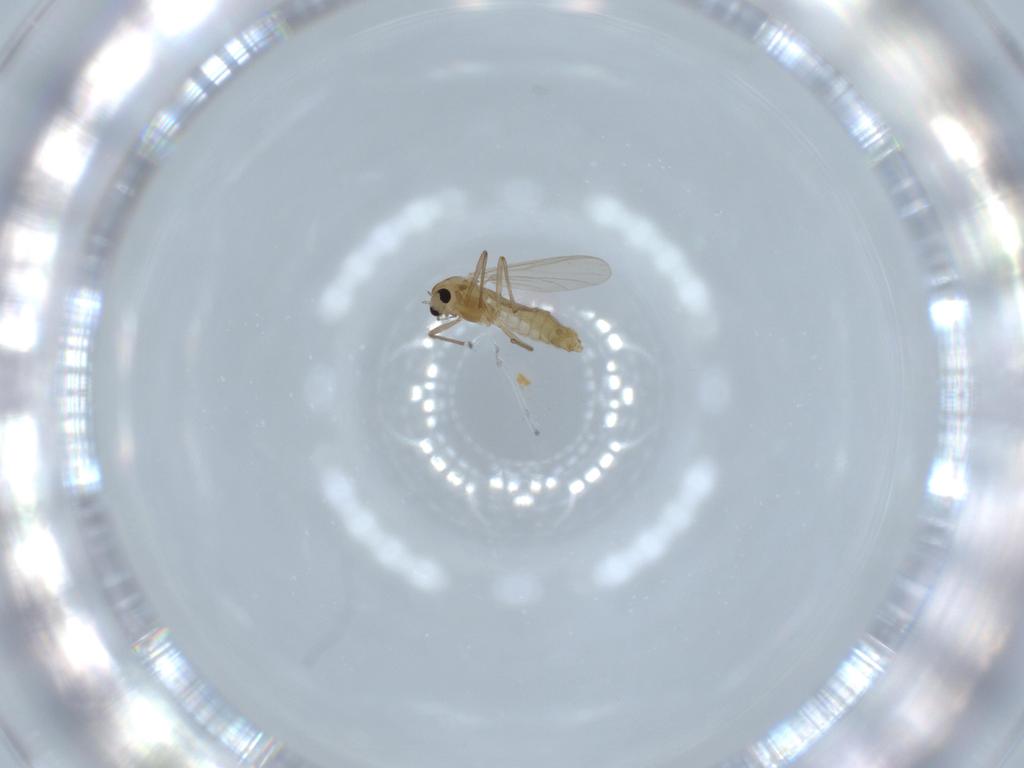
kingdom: Animalia
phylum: Arthropoda
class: Insecta
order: Diptera
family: Chironomidae
